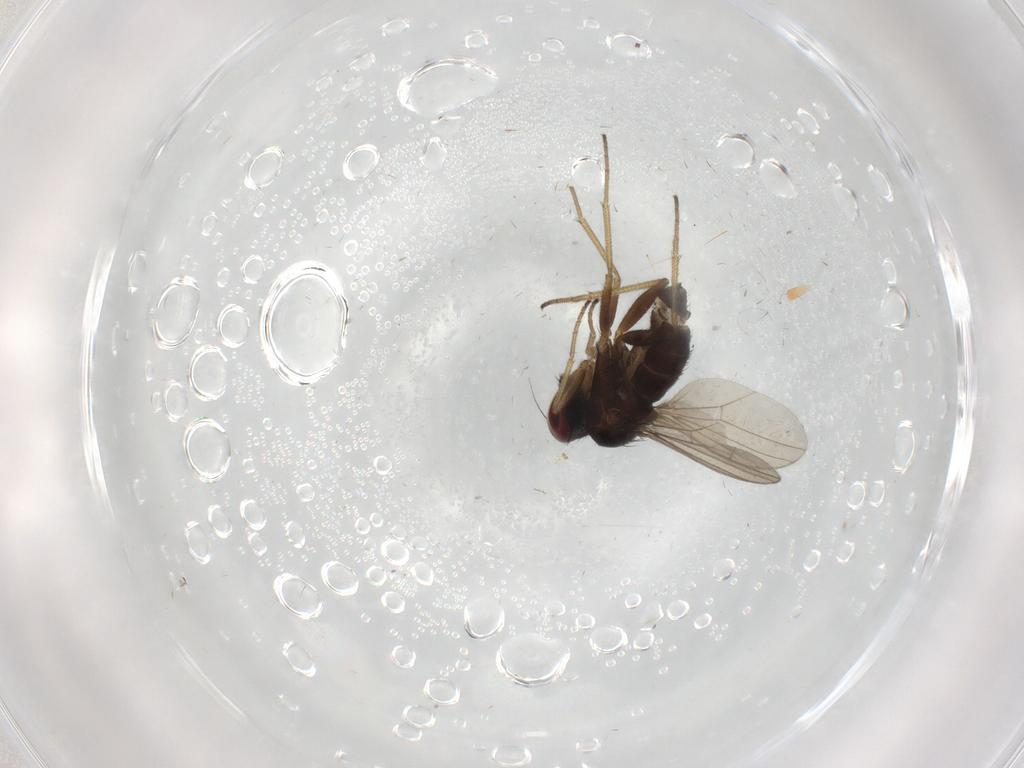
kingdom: Animalia
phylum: Arthropoda
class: Insecta
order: Diptera
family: Dolichopodidae
